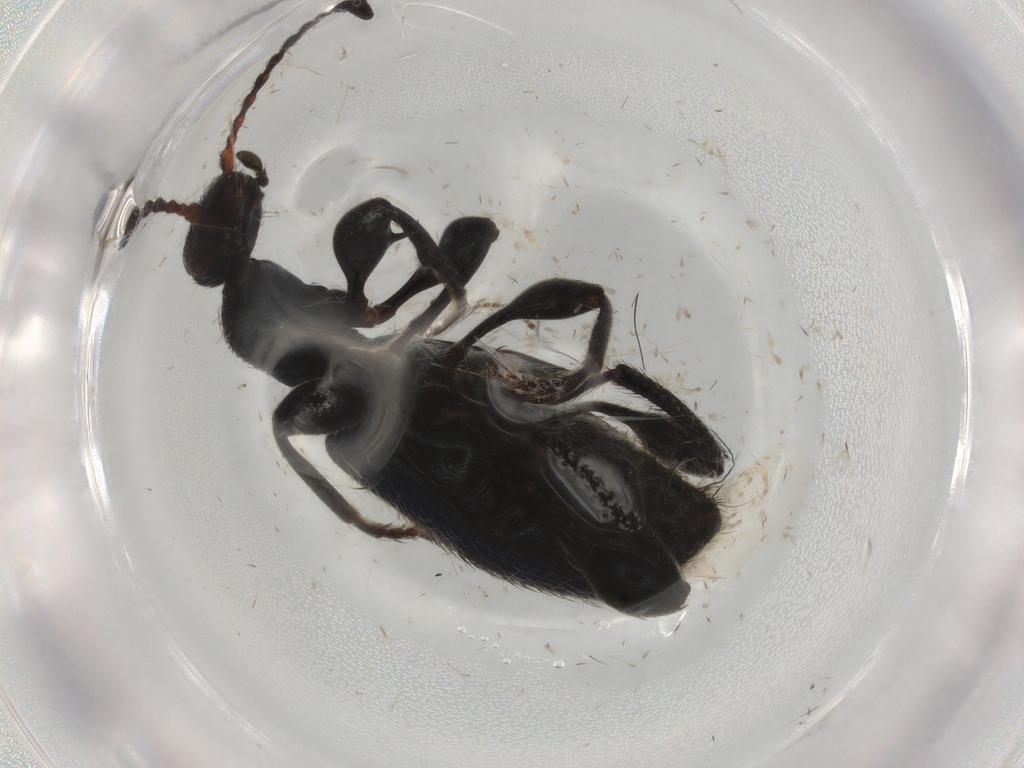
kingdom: Animalia
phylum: Arthropoda
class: Insecta
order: Coleoptera
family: Anthicidae
